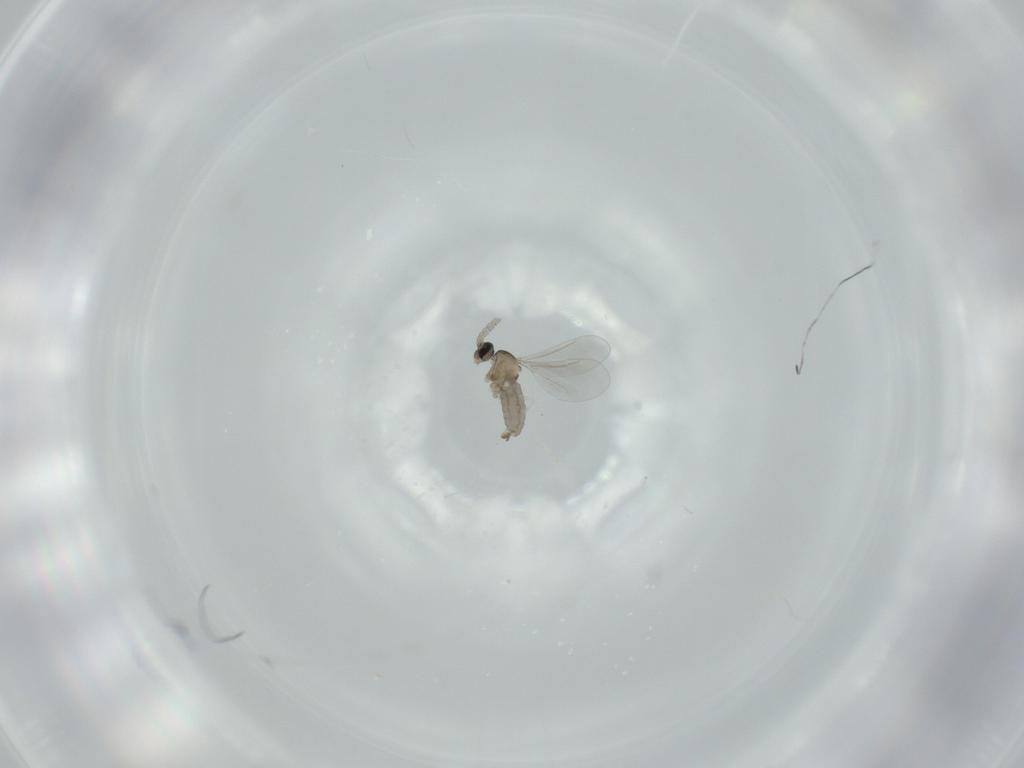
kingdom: Animalia
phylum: Arthropoda
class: Insecta
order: Diptera
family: Cecidomyiidae
